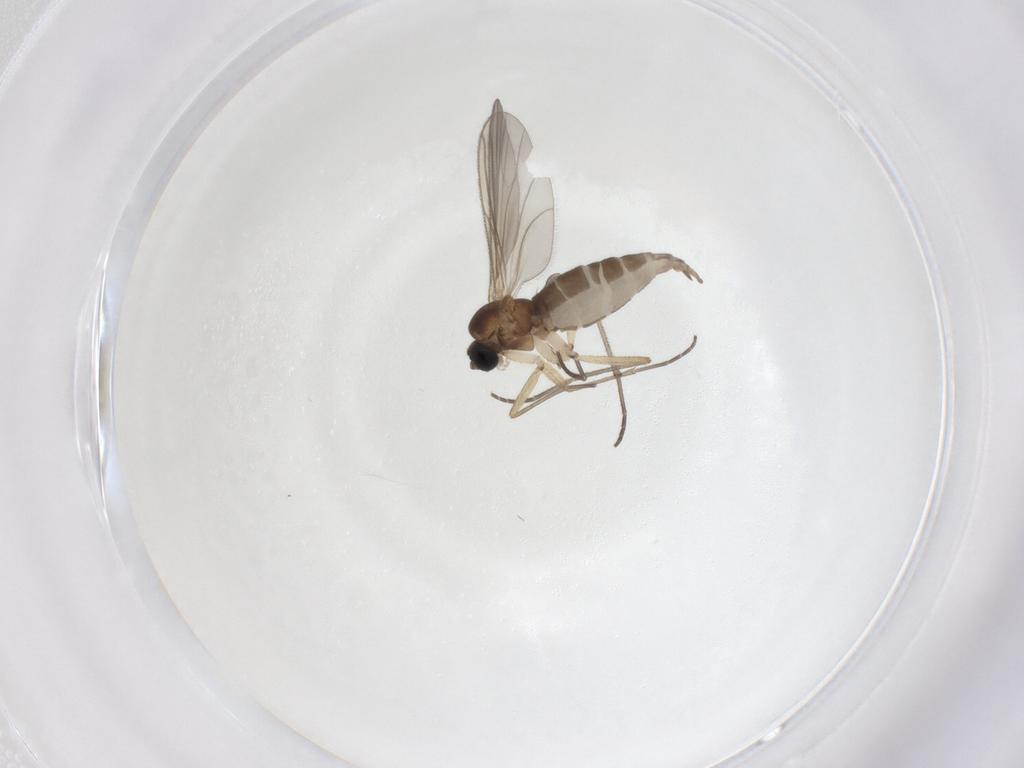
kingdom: Animalia
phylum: Arthropoda
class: Insecta
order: Diptera
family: Sciaridae
